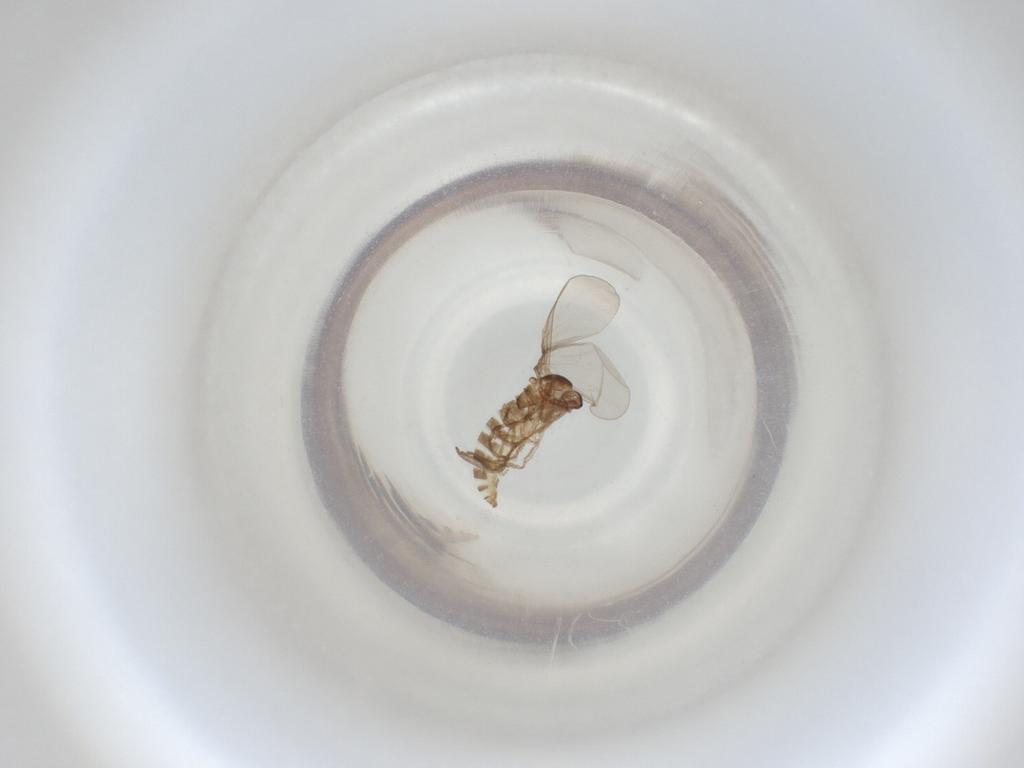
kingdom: Animalia
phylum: Arthropoda
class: Insecta
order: Diptera
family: Cecidomyiidae
